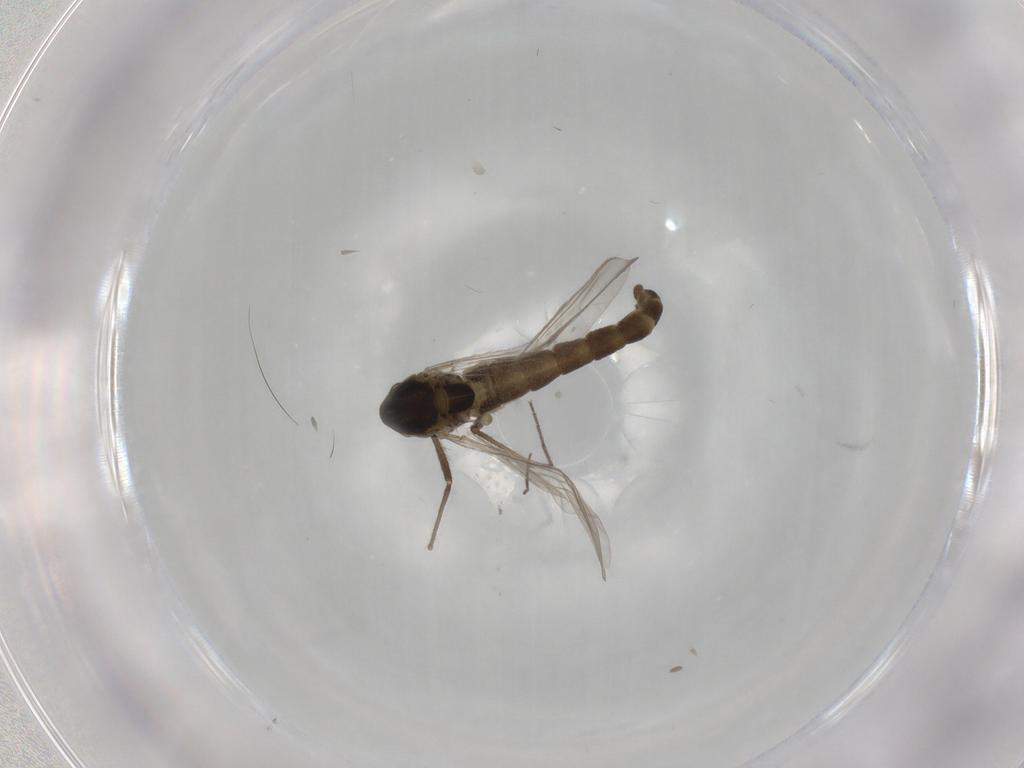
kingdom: Animalia
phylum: Arthropoda
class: Insecta
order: Diptera
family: Chironomidae
